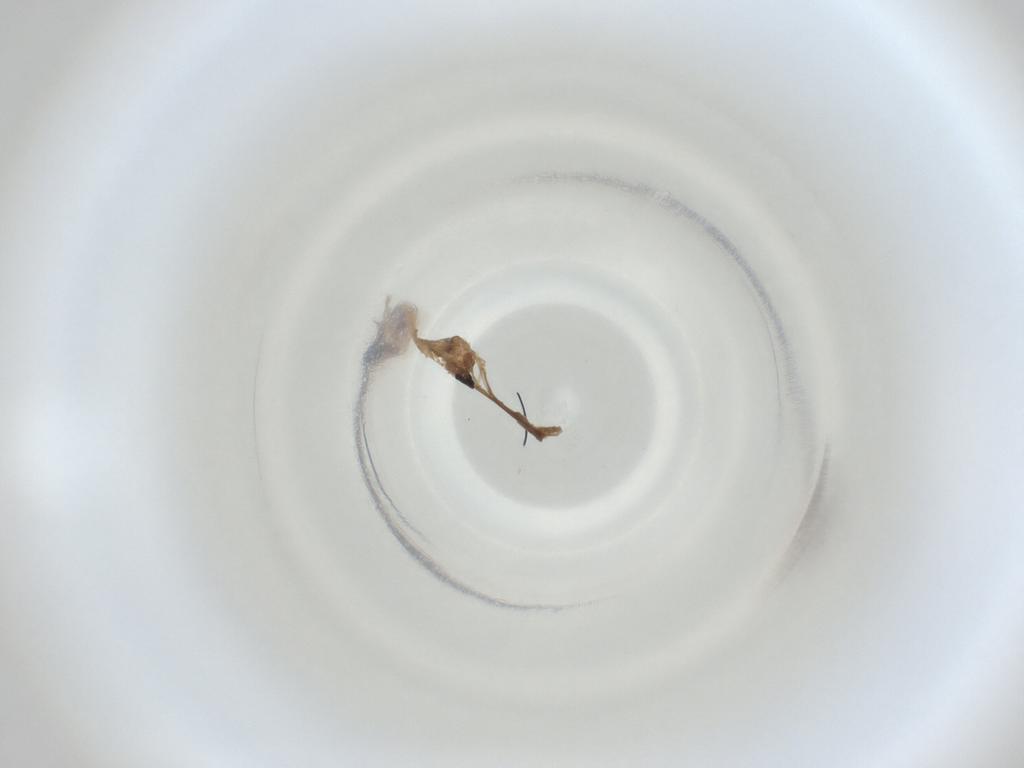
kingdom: Animalia
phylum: Arthropoda
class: Insecta
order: Diptera
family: Cecidomyiidae
